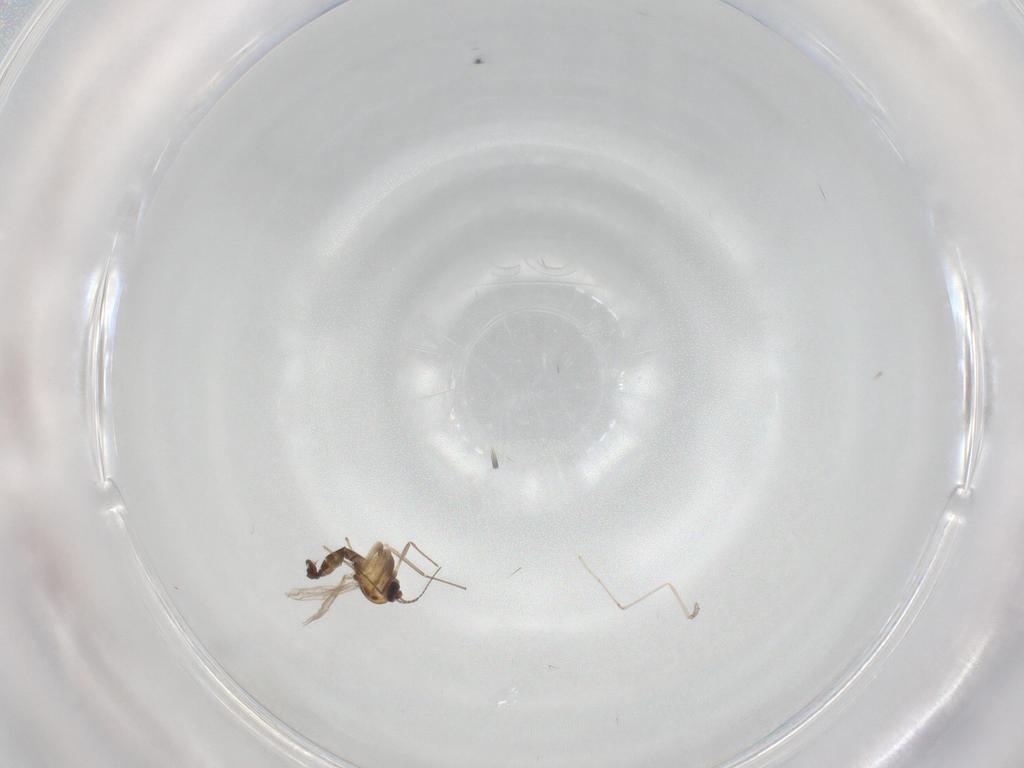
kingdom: Animalia
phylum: Arthropoda
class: Insecta
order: Diptera
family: Chironomidae
